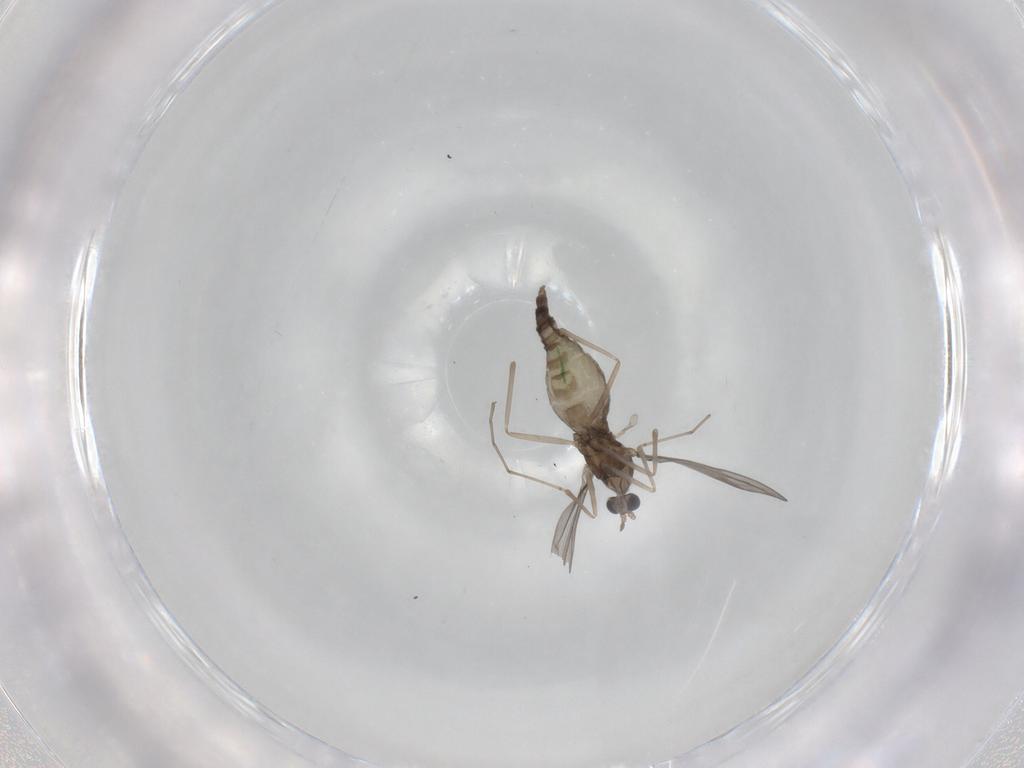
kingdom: Animalia
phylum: Arthropoda
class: Insecta
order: Diptera
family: Cecidomyiidae
